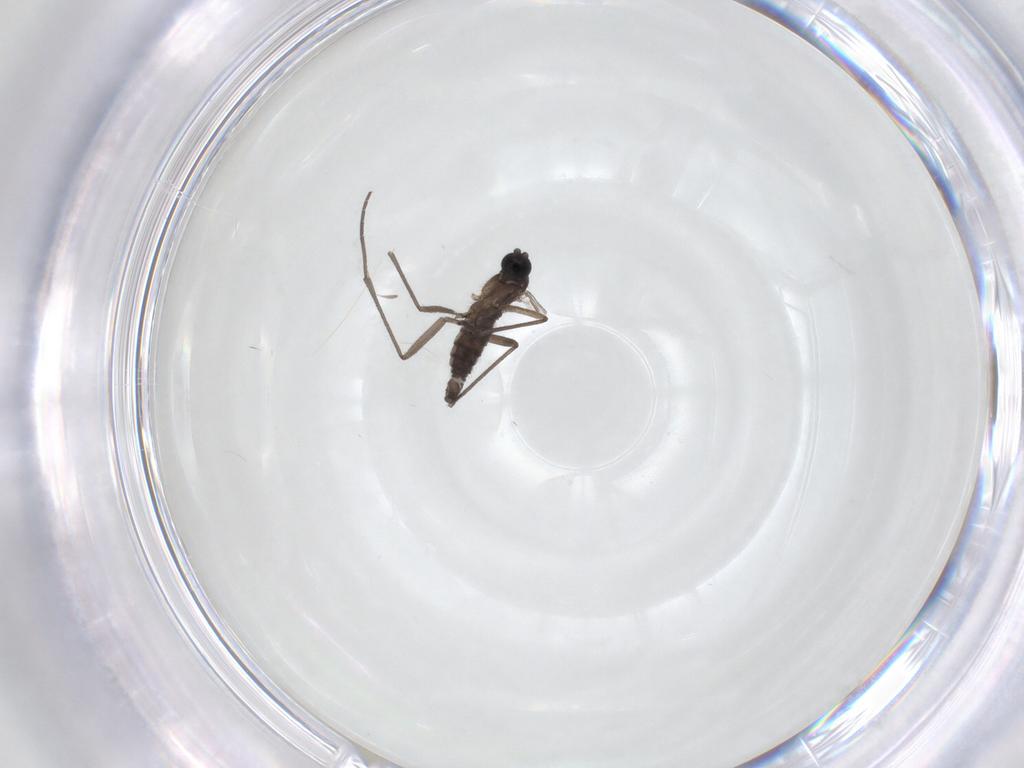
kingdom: Animalia
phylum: Arthropoda
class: Insecta
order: Diptera
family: Sciaridae
